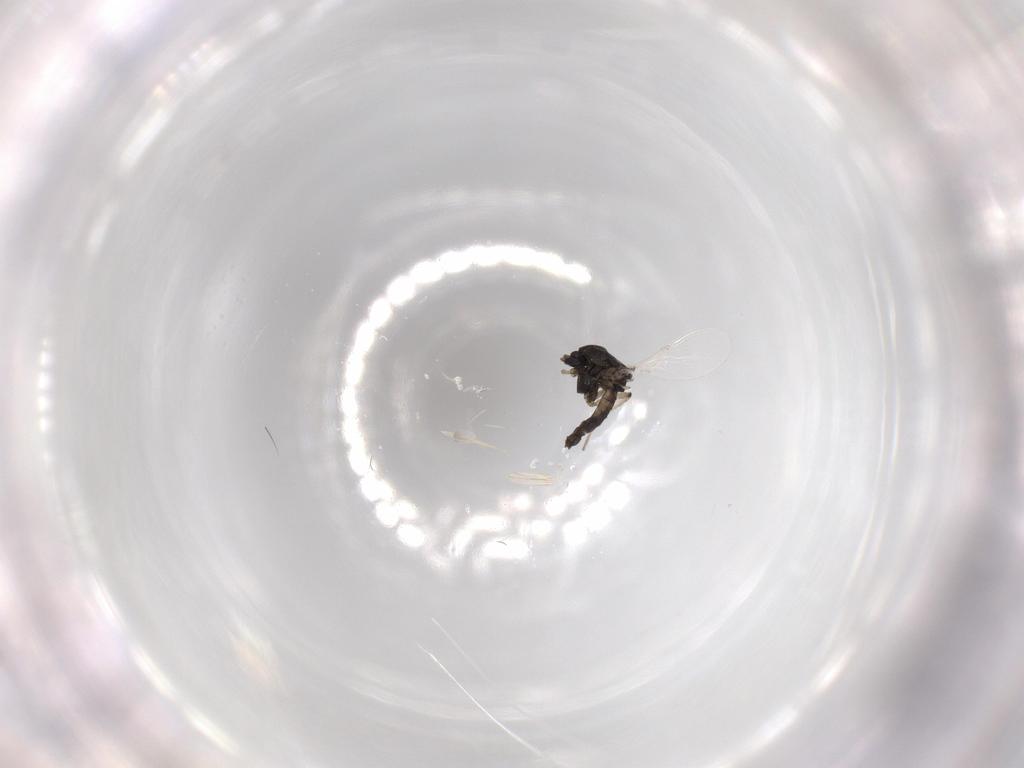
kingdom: Animalia
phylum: Arthropoda
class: Insecta
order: Diptera
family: Chironomidae
